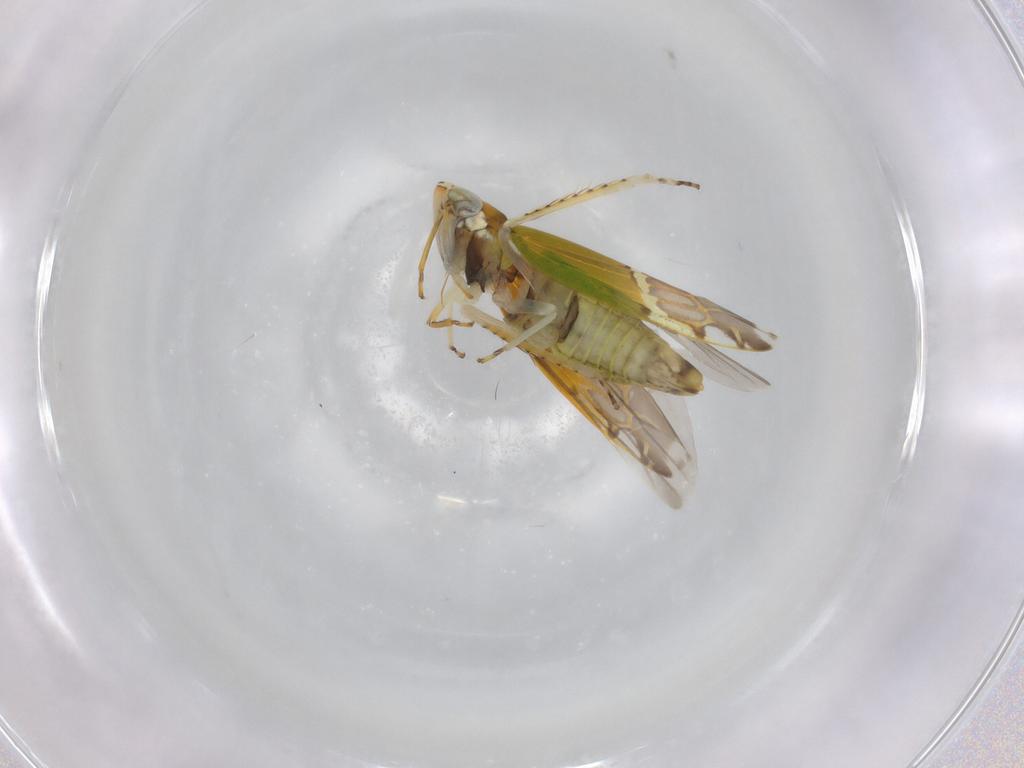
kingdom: Animalia
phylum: Arthropoda
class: Insecta
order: Hemiptera
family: Cicadellidae
